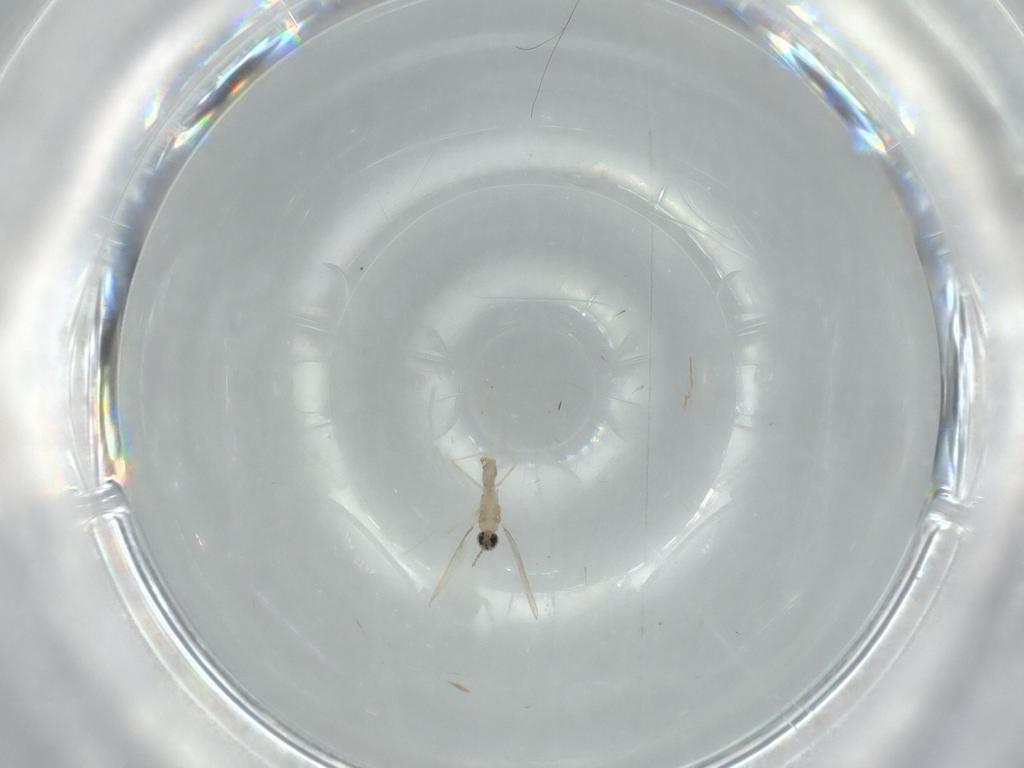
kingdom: Animalia
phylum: Arthropoda
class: Insecta
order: Diptera
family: Cecidomyiidae
